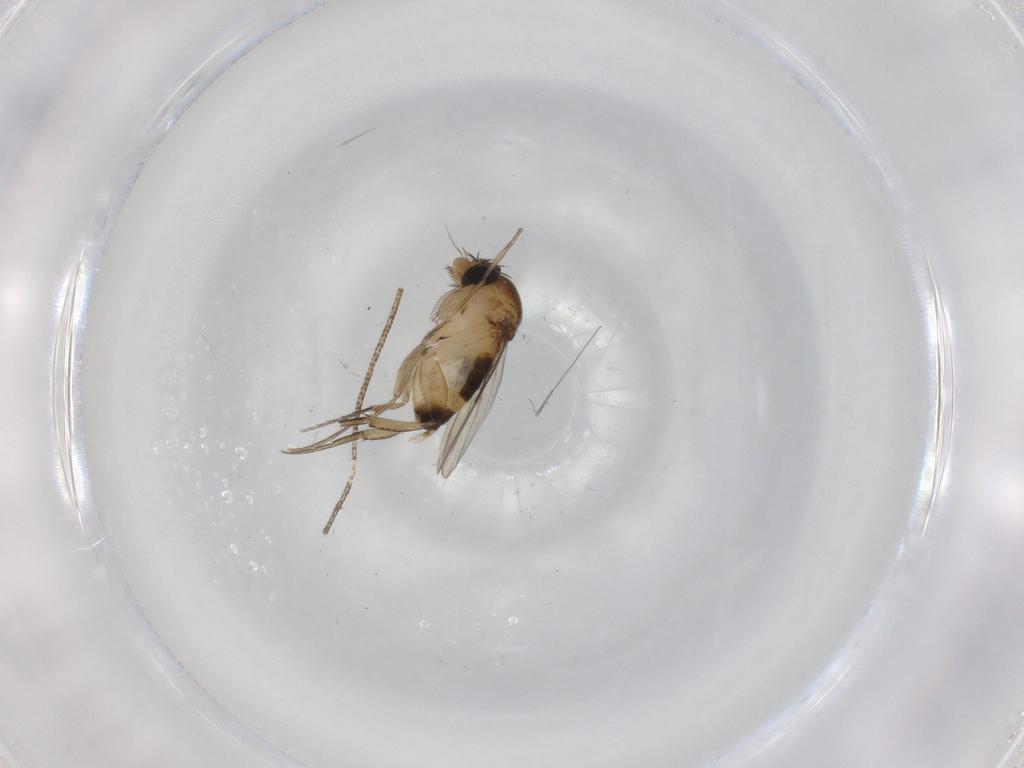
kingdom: Animalia
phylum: Arthropoda
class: Insecta
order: Diptera
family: Phoridae
